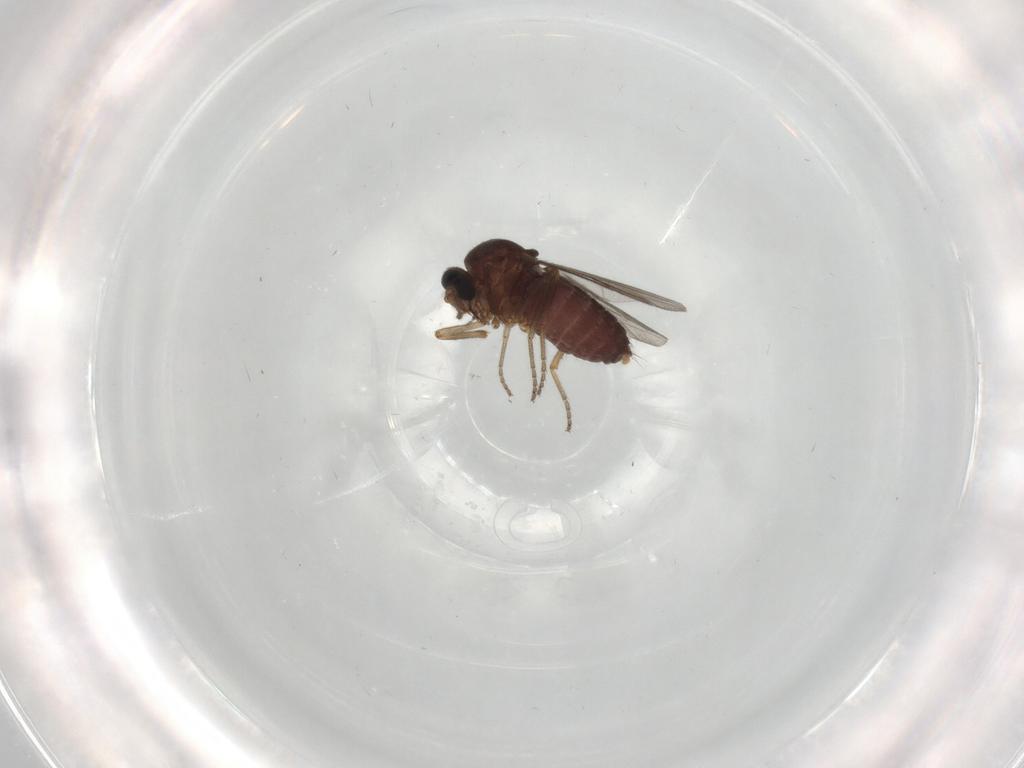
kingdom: Animalia
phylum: Arthropoda
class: Insecta
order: Diptera
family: Ceratopogonidae
